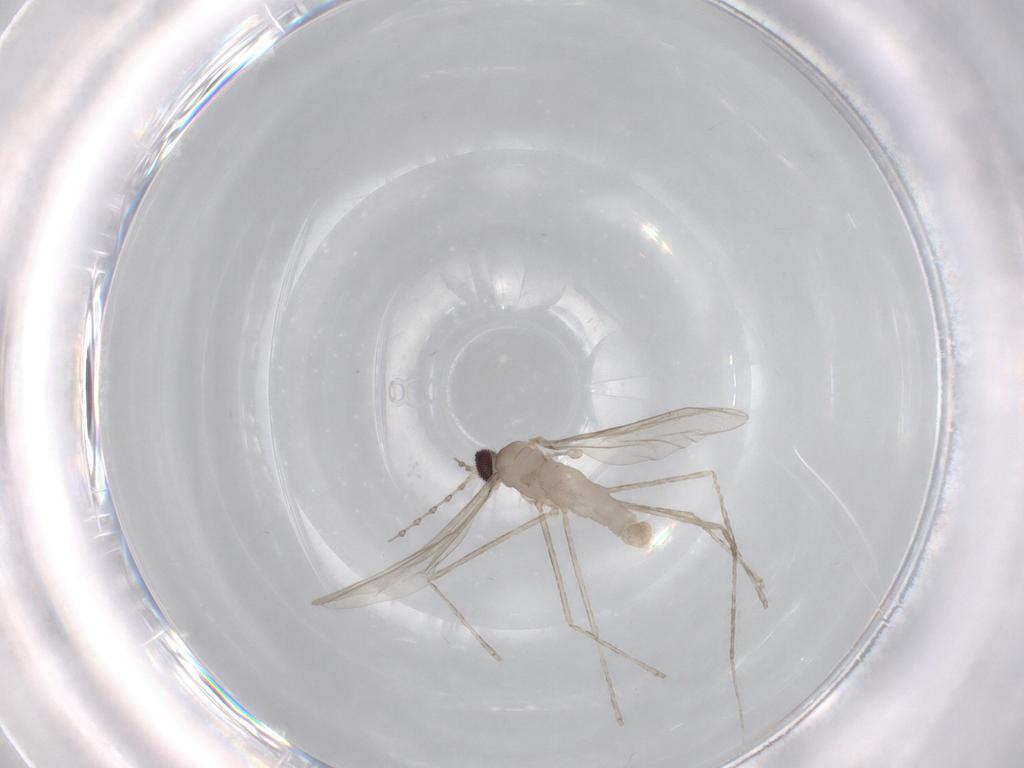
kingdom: Animalia
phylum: Arthropoda
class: Insecta
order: Diptera
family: Cecidomyiidae
